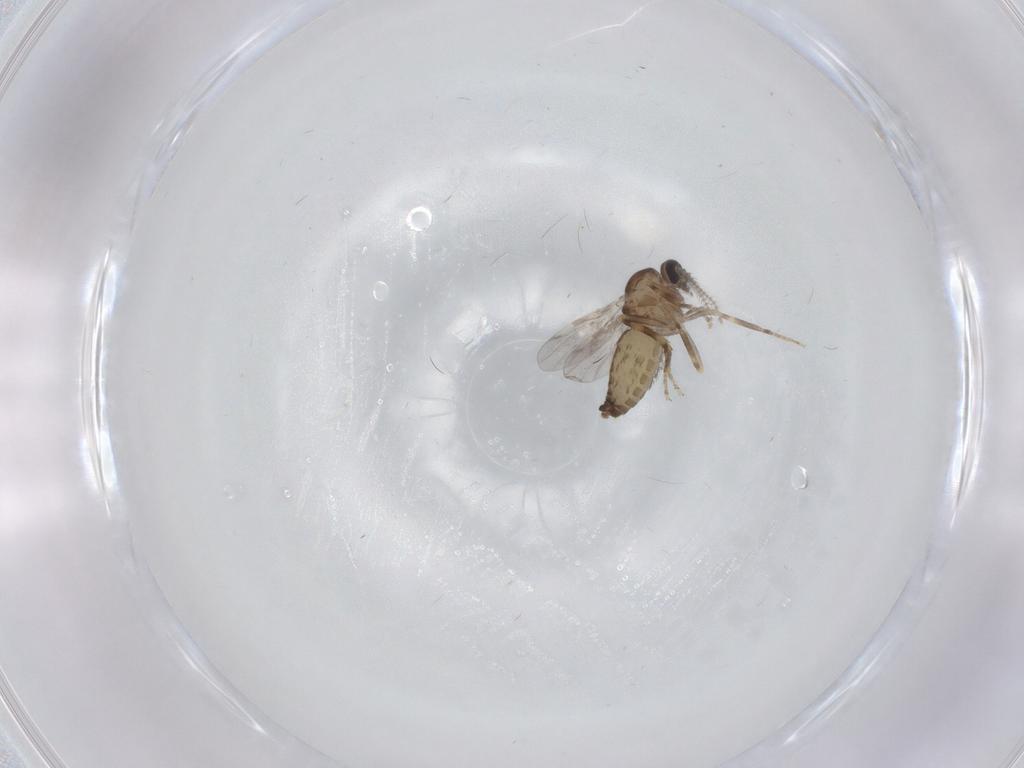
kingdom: Animalia
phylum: Arthropoda
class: Insecta
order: Diptera
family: Ceratopogonidae
